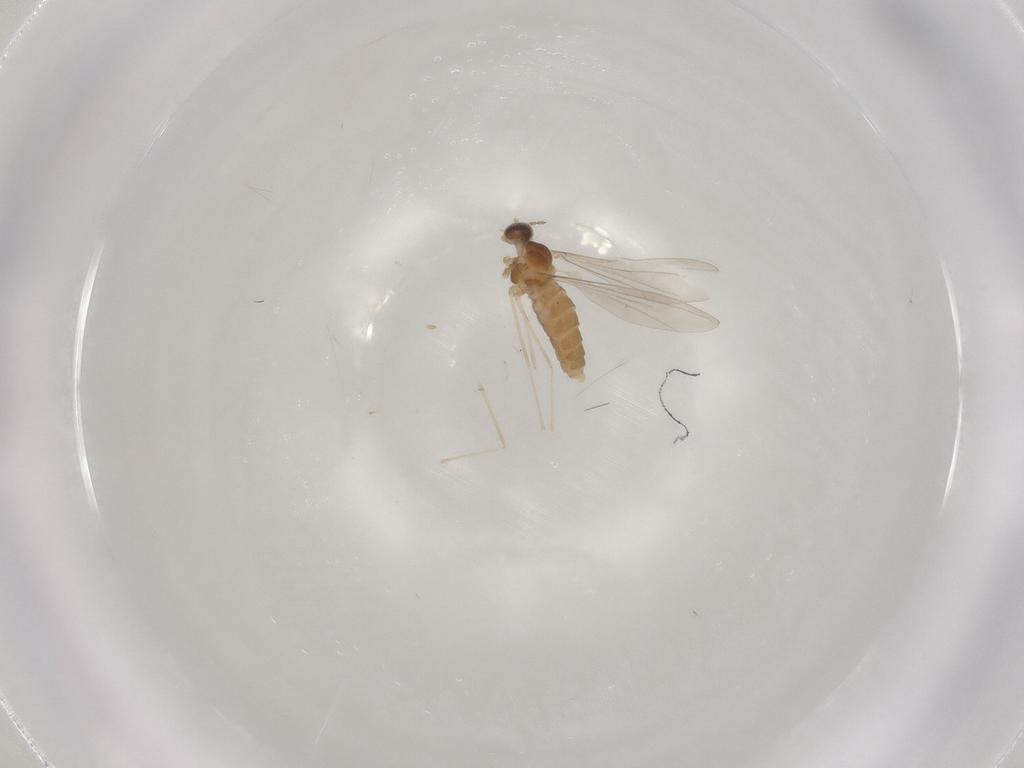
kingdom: Animalia
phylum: Arthropoda
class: Insecta
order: Diptera
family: Cecidomyiidae
